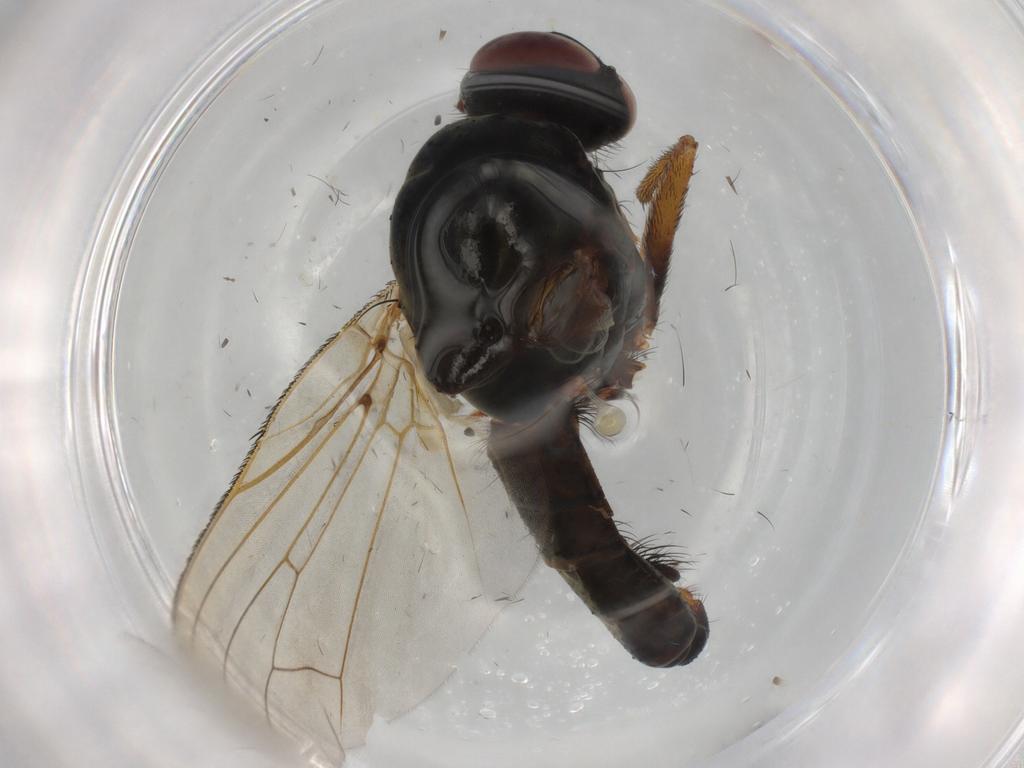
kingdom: Animalia
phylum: Arthropoda
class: Insecta
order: Diptera
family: Anthomyiidae
